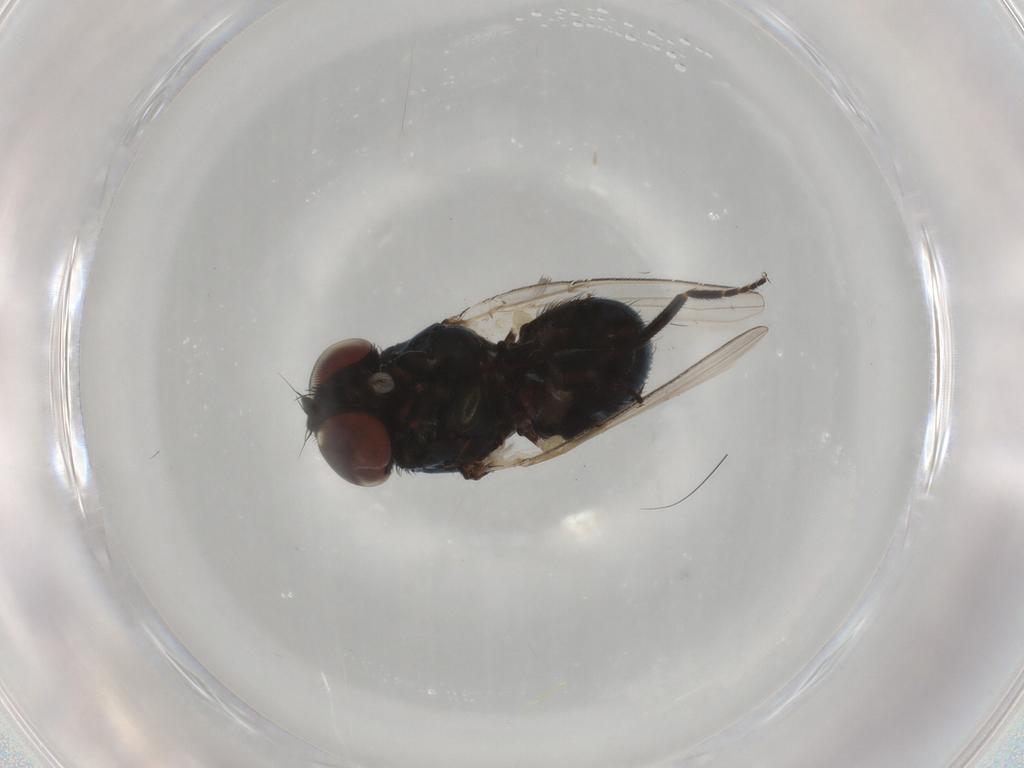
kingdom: Animalia
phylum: Arthropoda
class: Insecta
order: Diptera
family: Milichiidae
